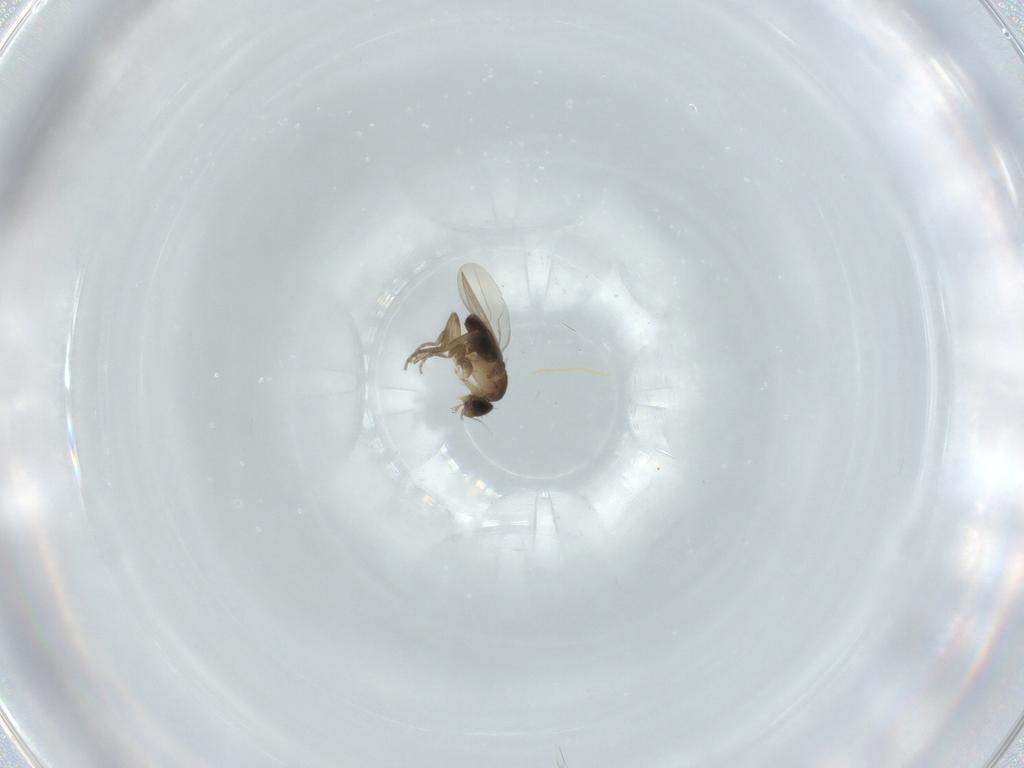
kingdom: Animalia
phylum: Arthropoda
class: Insecta
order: Diptera
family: Phoridae
